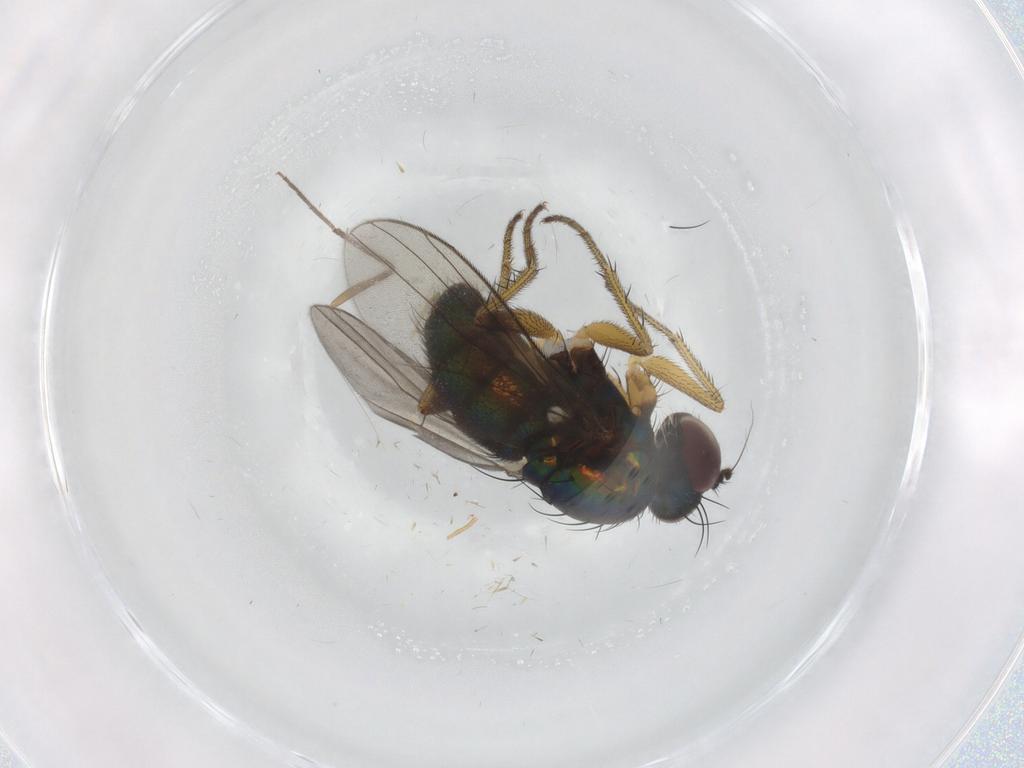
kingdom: Animalia
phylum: Arthropoda
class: Insecta
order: Diptera
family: Dolichopodidae
